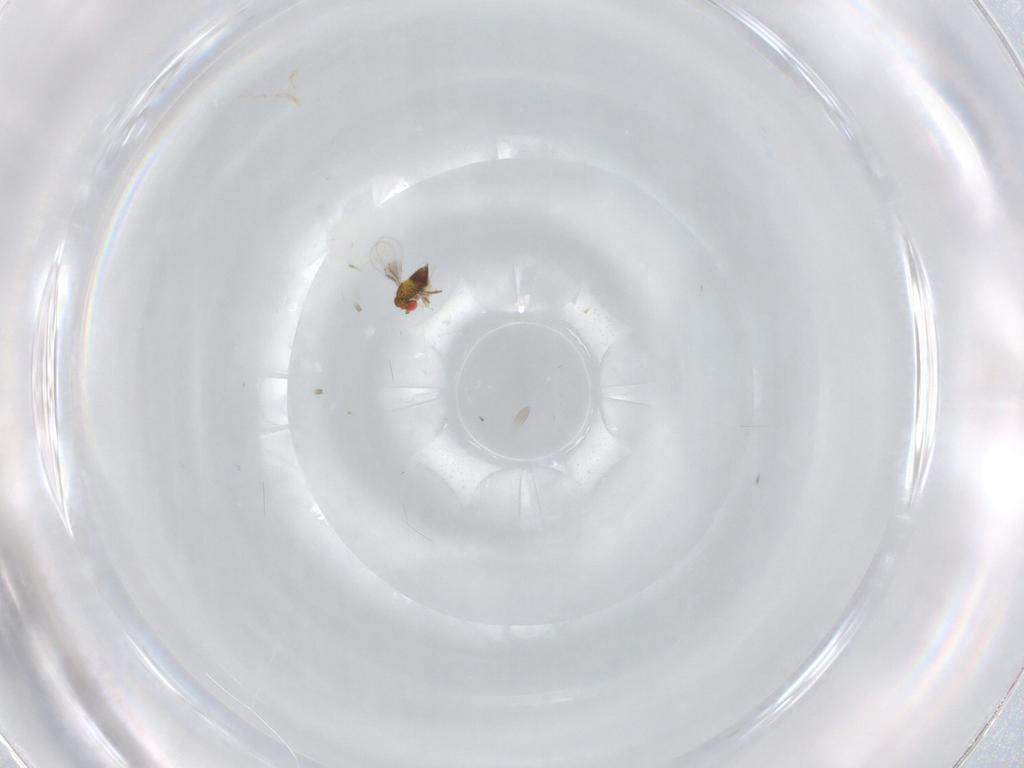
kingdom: Animalia
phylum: Arthropoda
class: Insecta
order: Hymenoptera
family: Trichogrammatidae
